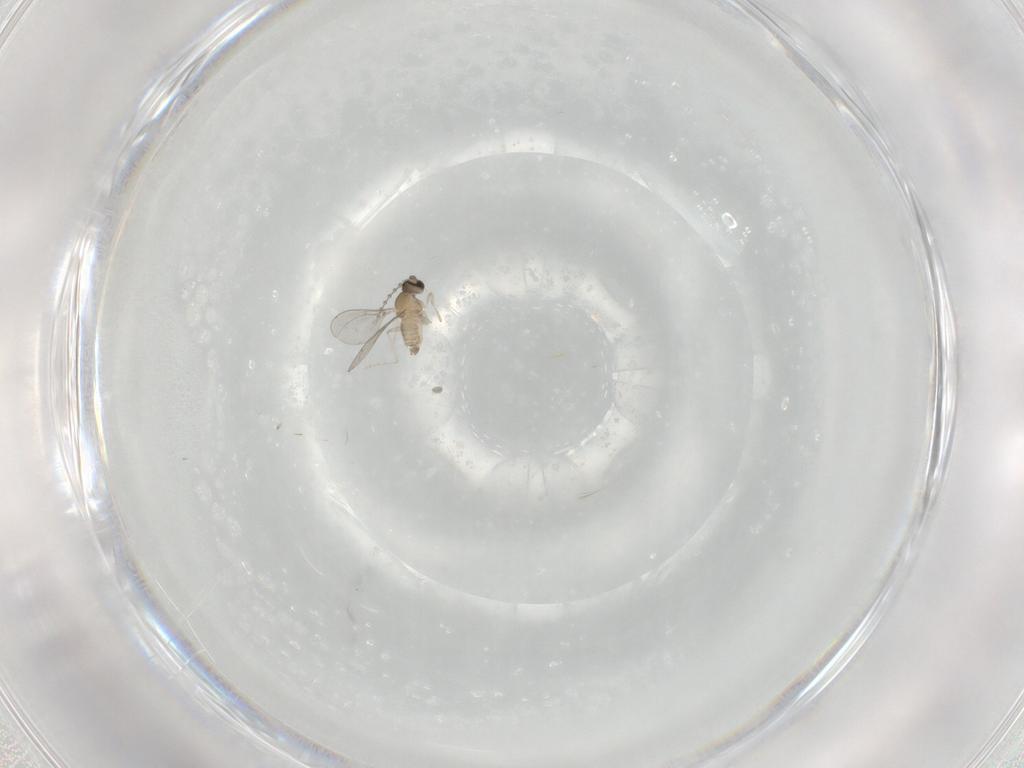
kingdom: Animalia
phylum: Arthropoda
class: Insecta
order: Diptera
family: Cecidomyiidae
